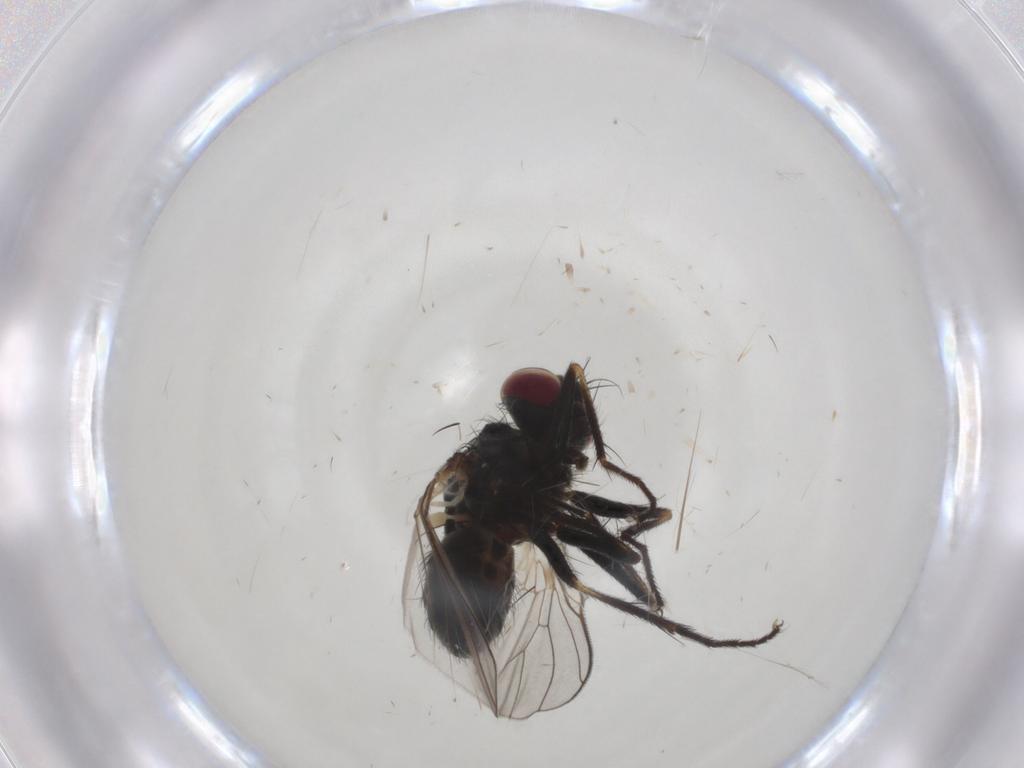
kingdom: Animalia
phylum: Arthropoda
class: Insecta
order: Diptera
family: Muscidae
